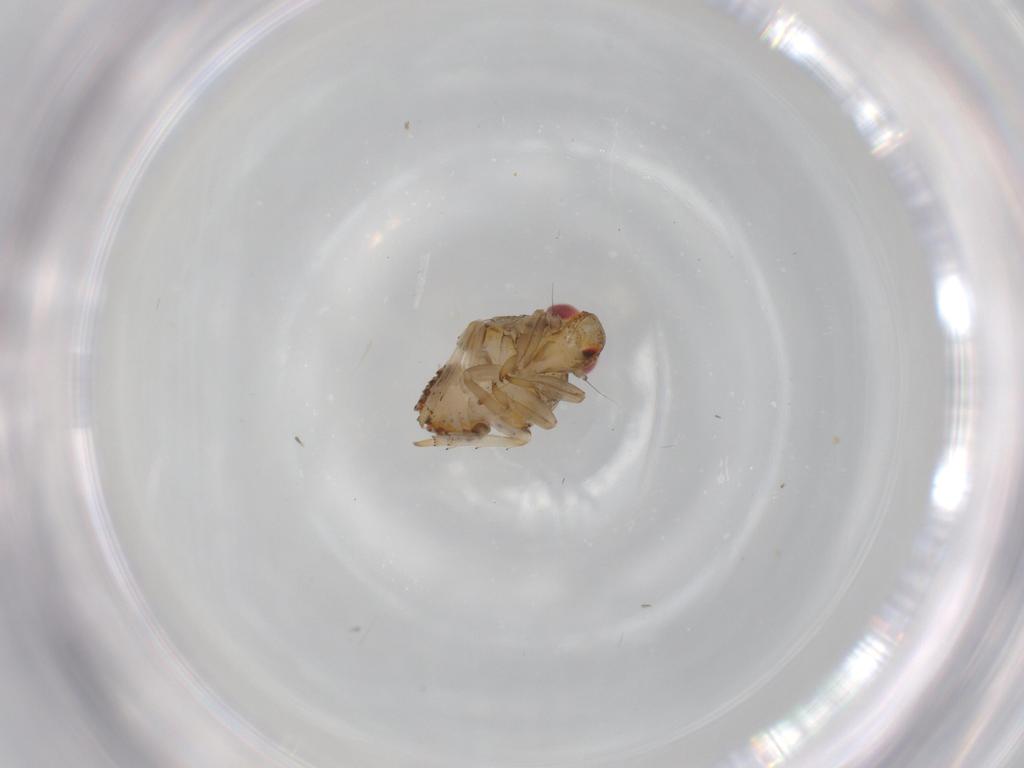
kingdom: Animalia
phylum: Arthropoda
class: Insecta
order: Hemiptera
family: Issidae
